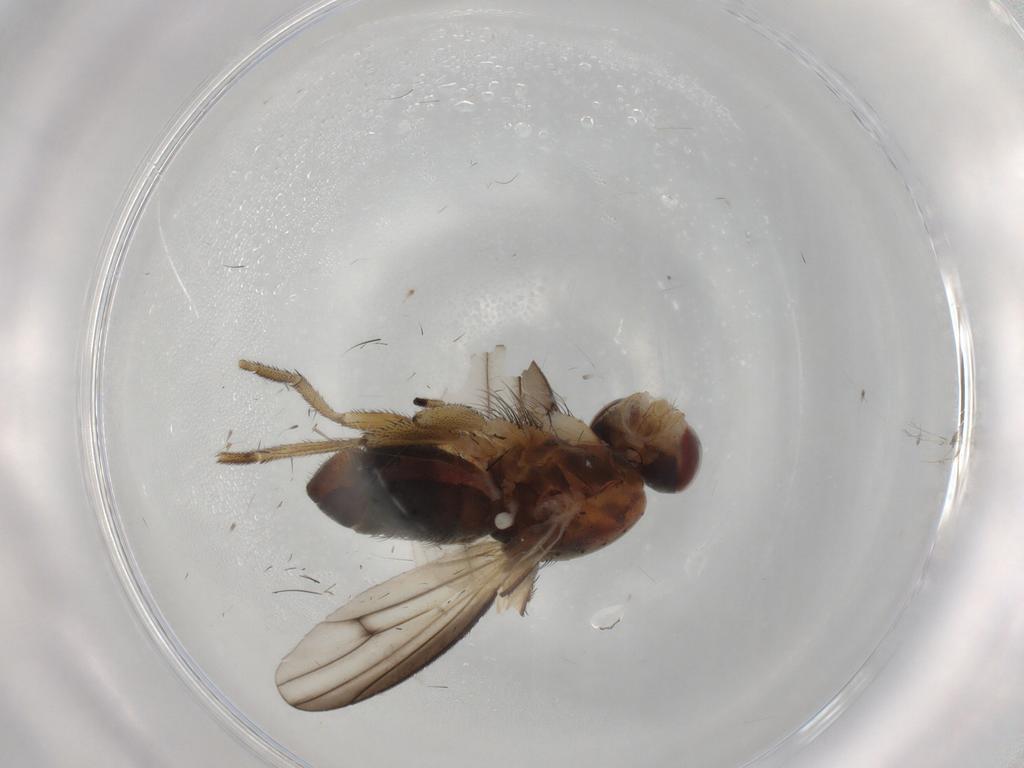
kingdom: Animalia
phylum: Arthropoda
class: Insecta
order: Diptera
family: Heleomyzidae
